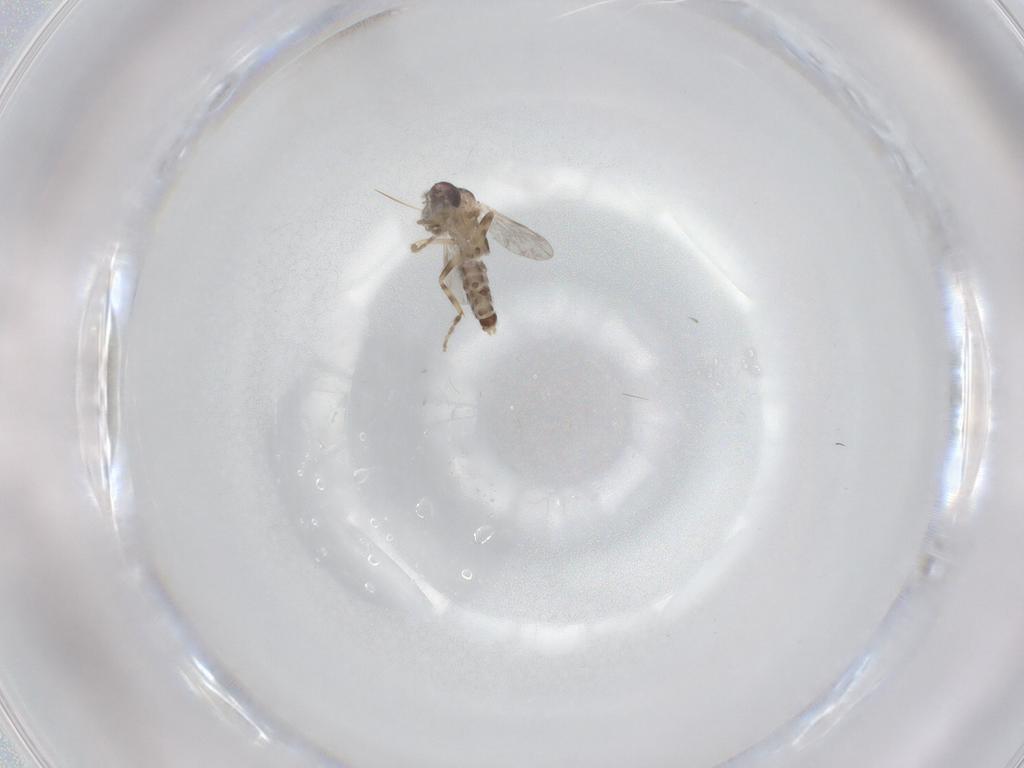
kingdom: Animalia
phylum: Arthropoda
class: Insecta
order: Diptera
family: Ceratopogonidae
